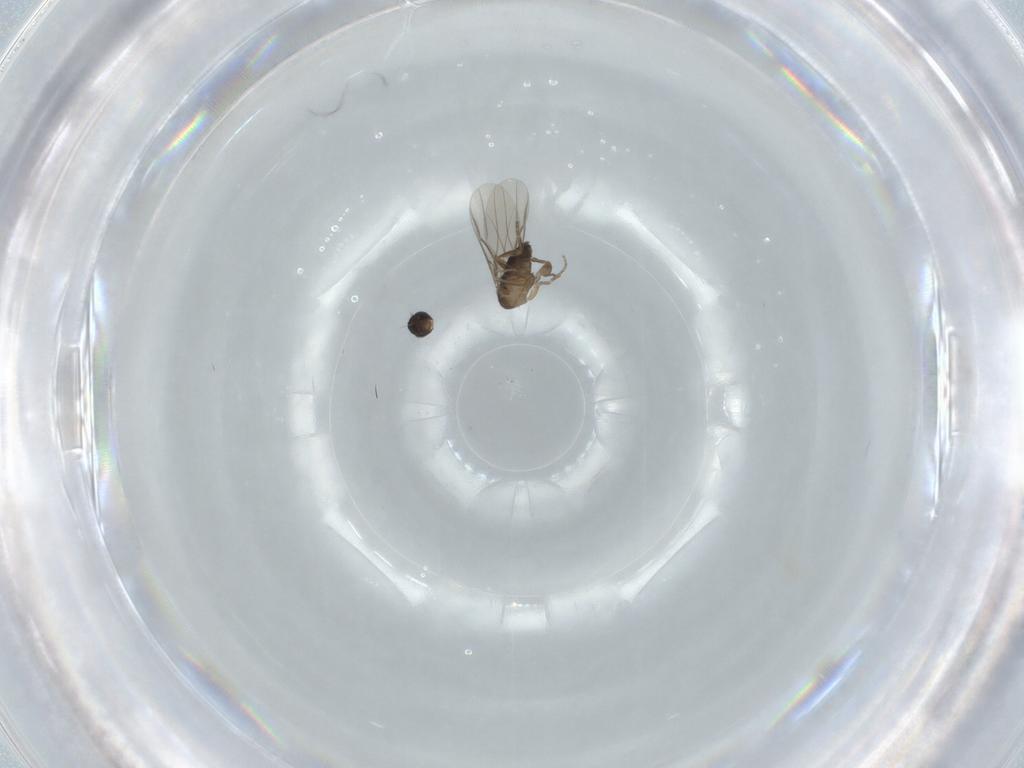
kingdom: Animalia
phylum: Arthropoda
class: Insecta
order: Diptera
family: Phoridae
